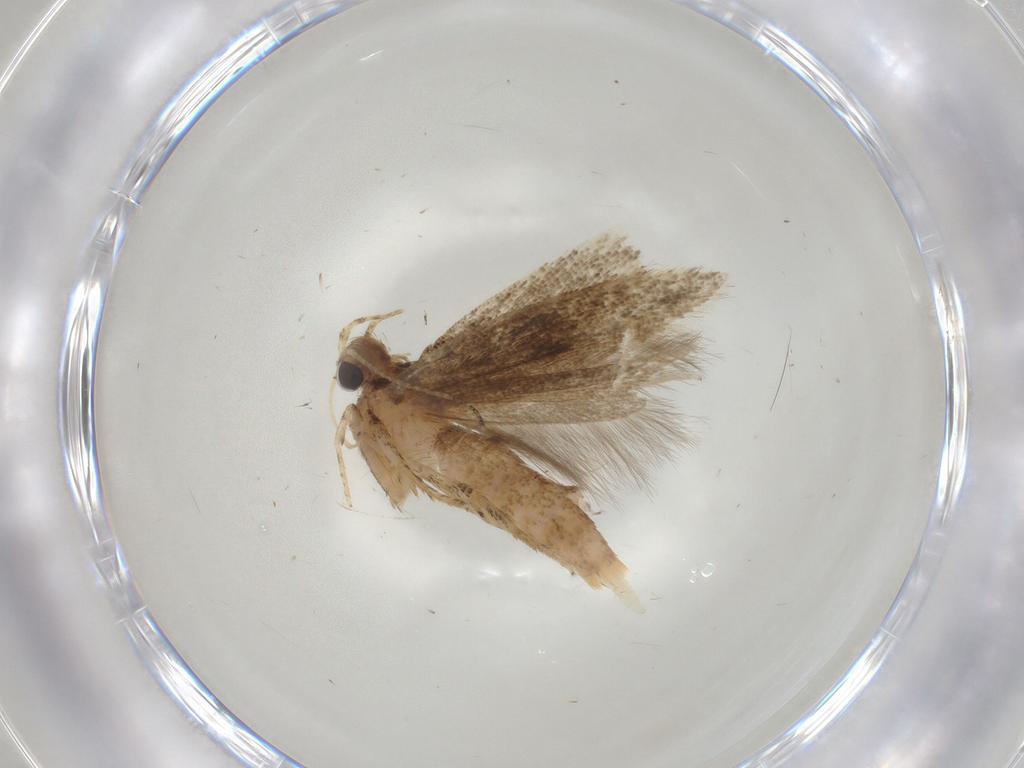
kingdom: Animalia
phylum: Arthropoda
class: Insecta
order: Lepidoptera
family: Gelechiidae
